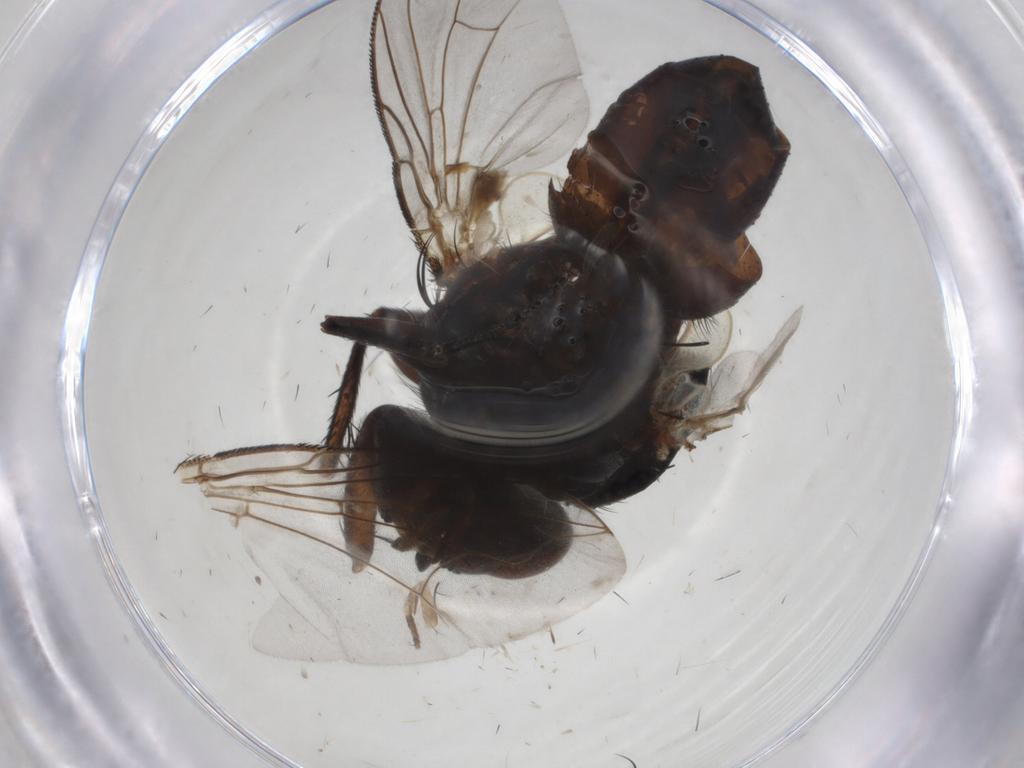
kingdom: Animalia
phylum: Arthropoda
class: Insecta
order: Diptera
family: Tachinidae
